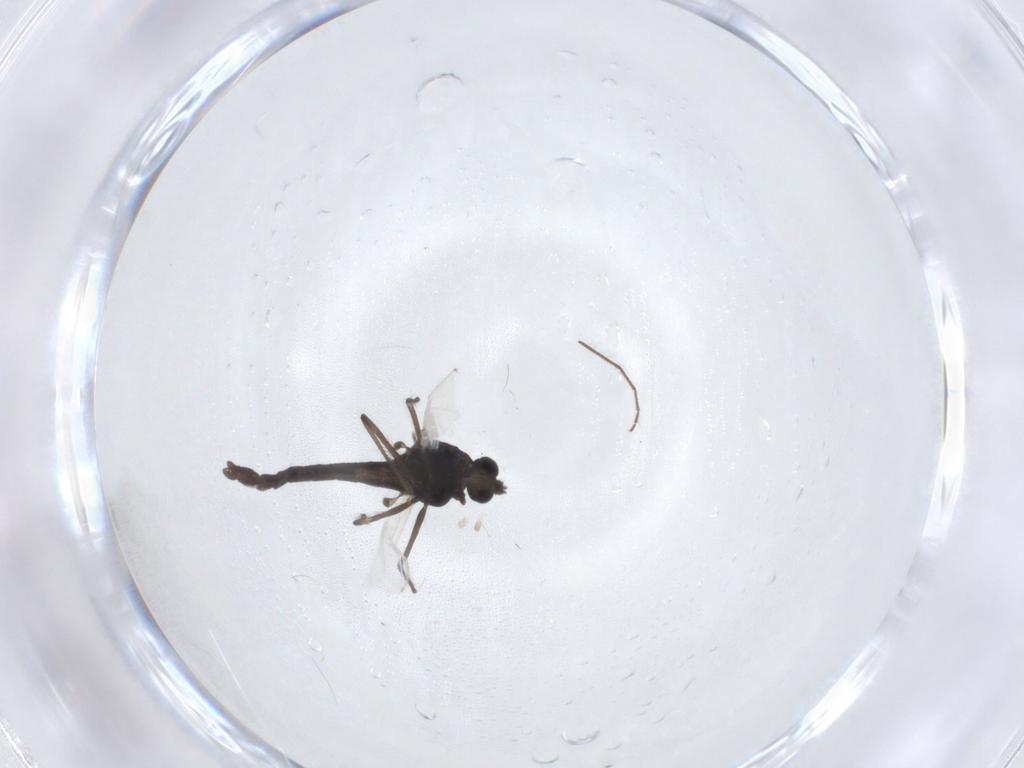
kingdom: Animalia
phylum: Arthropoda
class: Insecta
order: Diptera
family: Chironomidae
